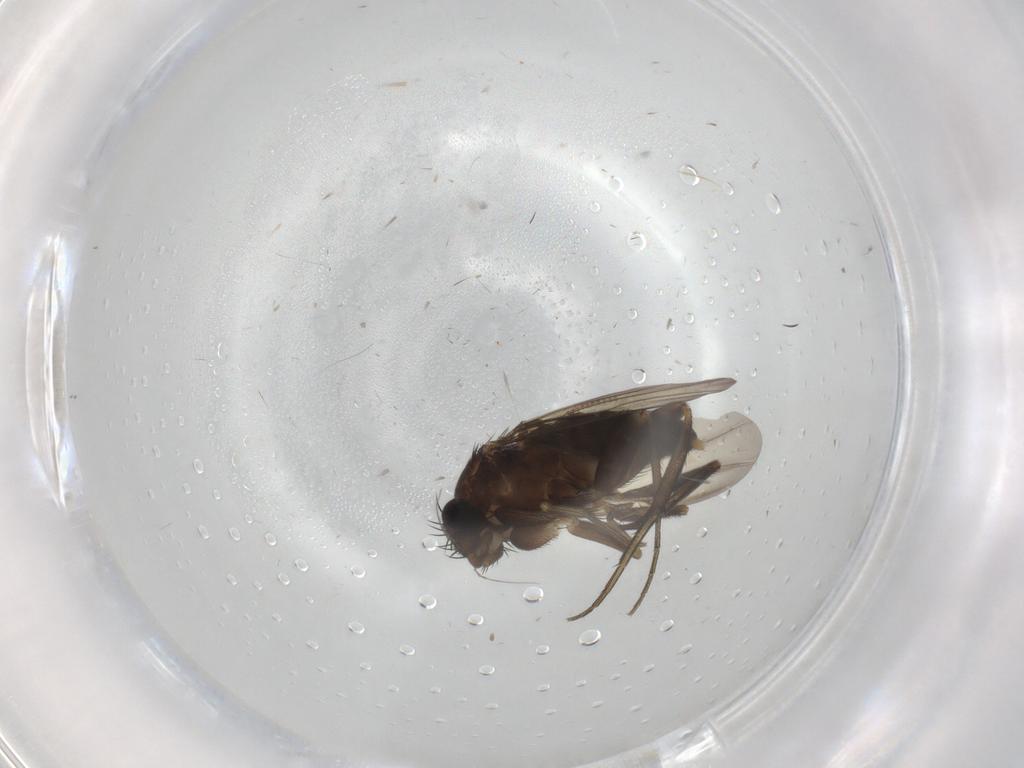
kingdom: Animalia
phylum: Arthropoda
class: Insecta
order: Diptera
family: Phoridae
